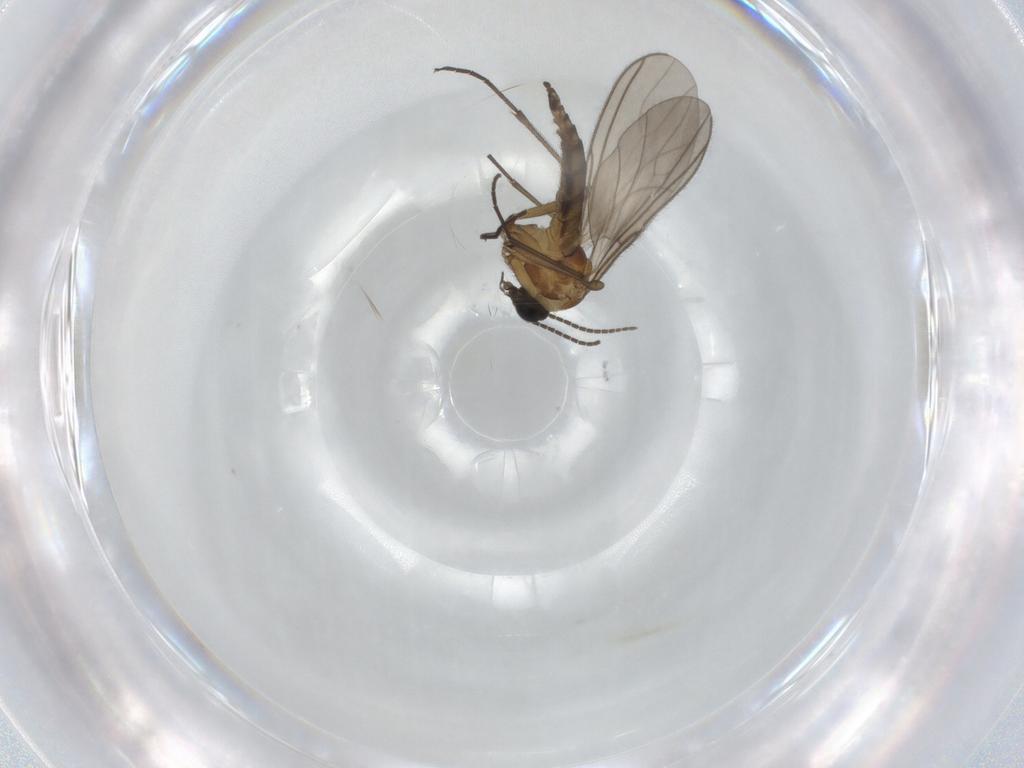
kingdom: Animalia
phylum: Arthropoda
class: Insecta
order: Diptera
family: Sciaridae
